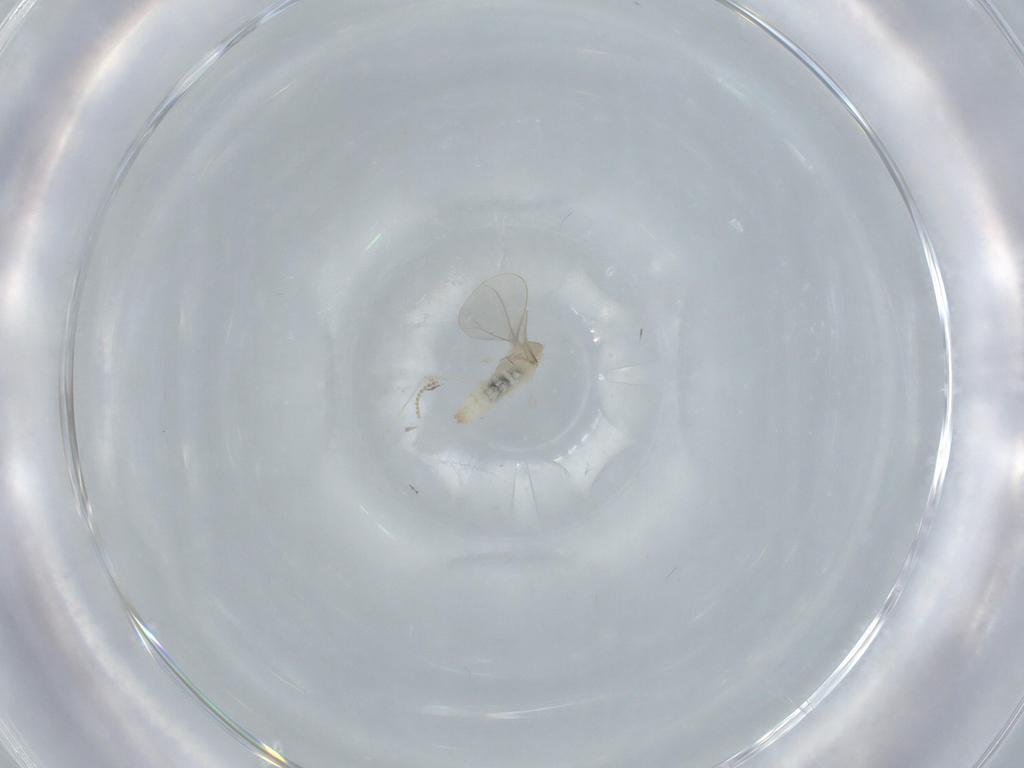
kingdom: Animalia
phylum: Arthropoda
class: Insecta
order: Diptera
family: Cecidomyiidae
